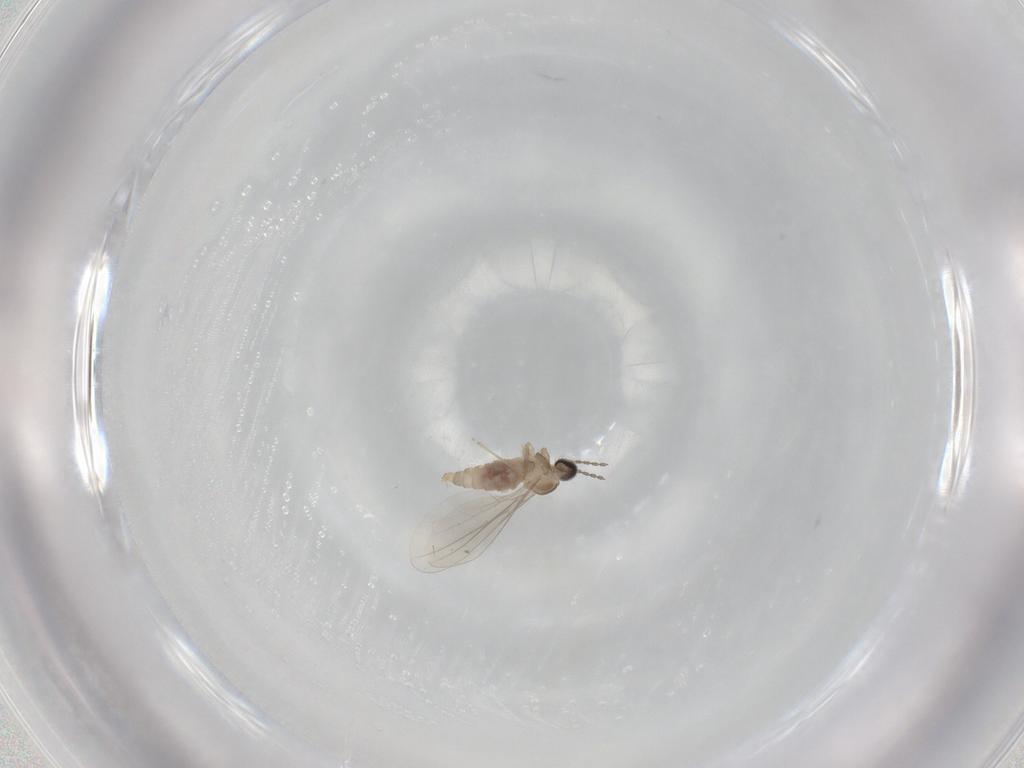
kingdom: Animalia
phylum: Arthropoda
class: Insecta
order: Diptera
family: Cecidomyiidae
